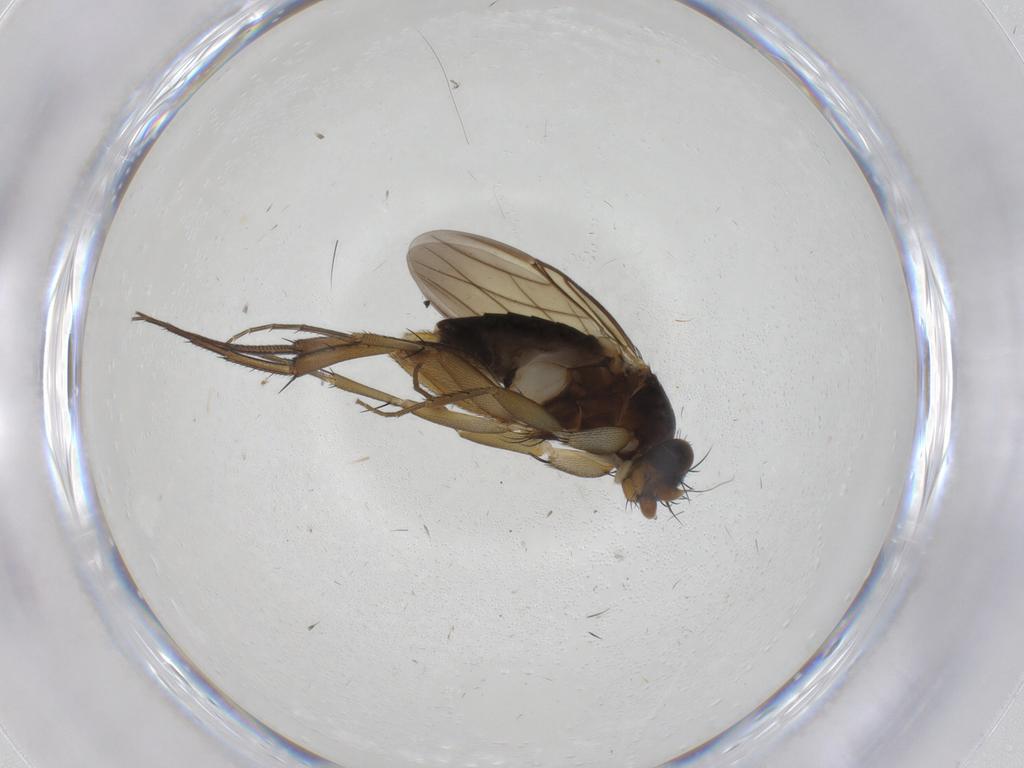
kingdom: Animalia
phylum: Arthropoda
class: Insecta
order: Diptera
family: Phoridae
